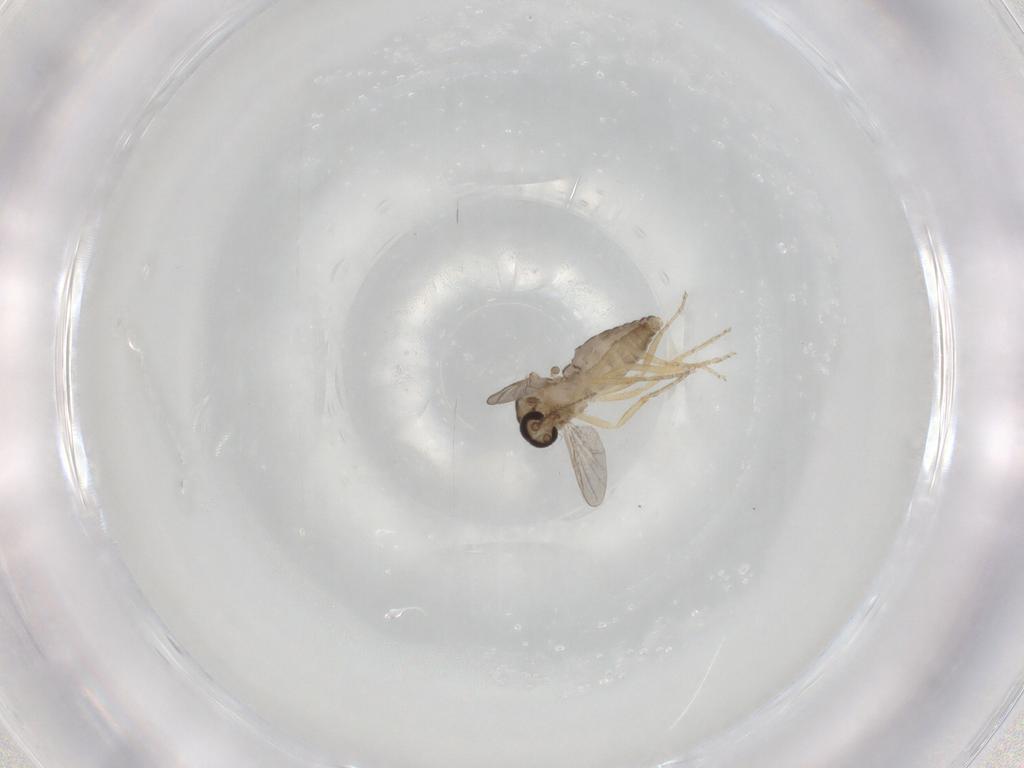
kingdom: Animalia
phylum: Arthropoda
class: Insecta
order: Diptera
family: Ceratopogonidae
